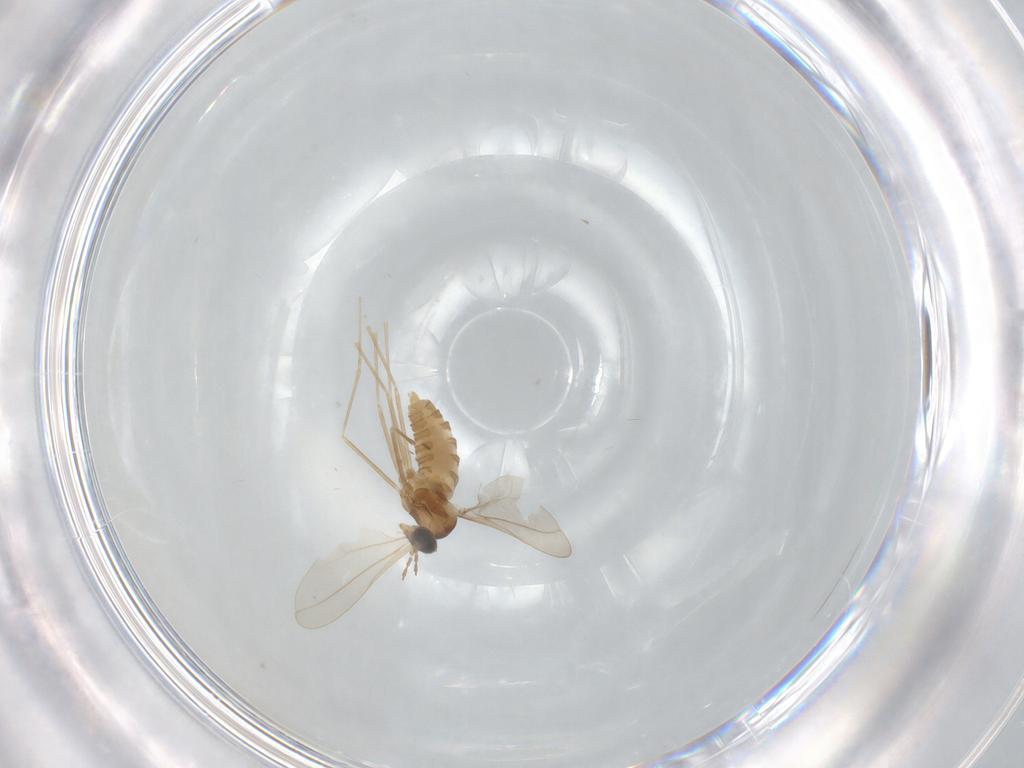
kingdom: Animalia
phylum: Arthropoda
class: Insecta
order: Diptera
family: Cecidomyiidae
